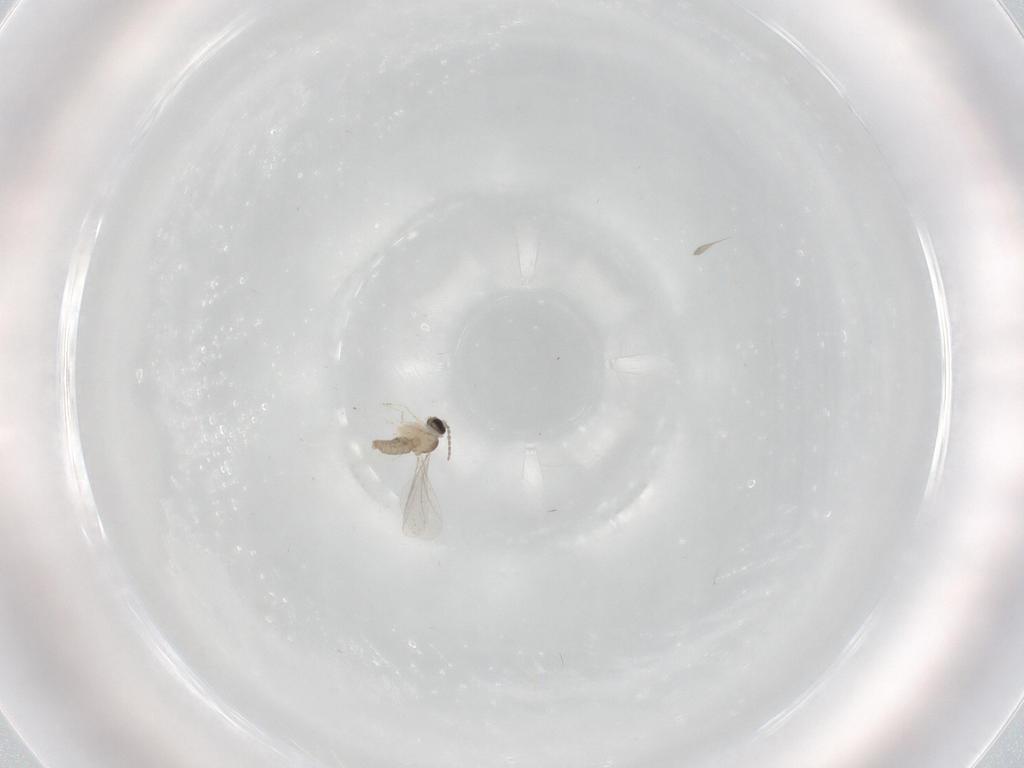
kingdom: Animalia
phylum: Arthropoda
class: Insecta
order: Diptera
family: Cecidomyiidae
